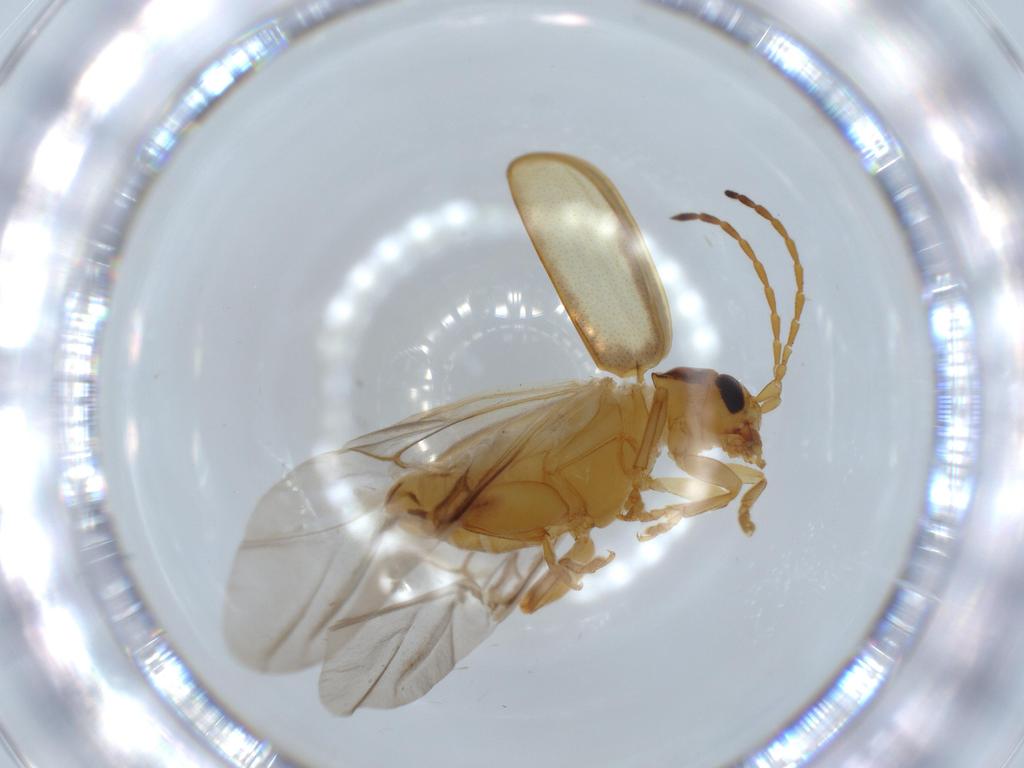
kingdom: Animalia
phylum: Arthropoda
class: Insecta
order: Coleoptera
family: Chrysomelidae
